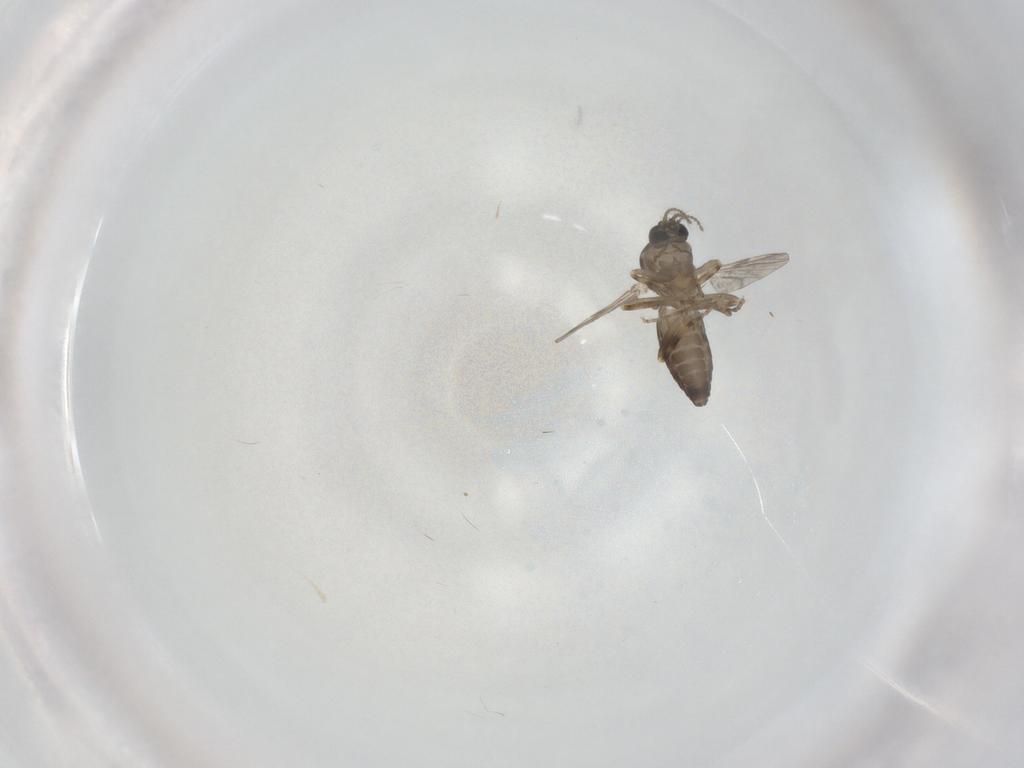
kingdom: Animalia
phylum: Arthropoda
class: Insecta
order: Diptera
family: Ceratopogonidae
